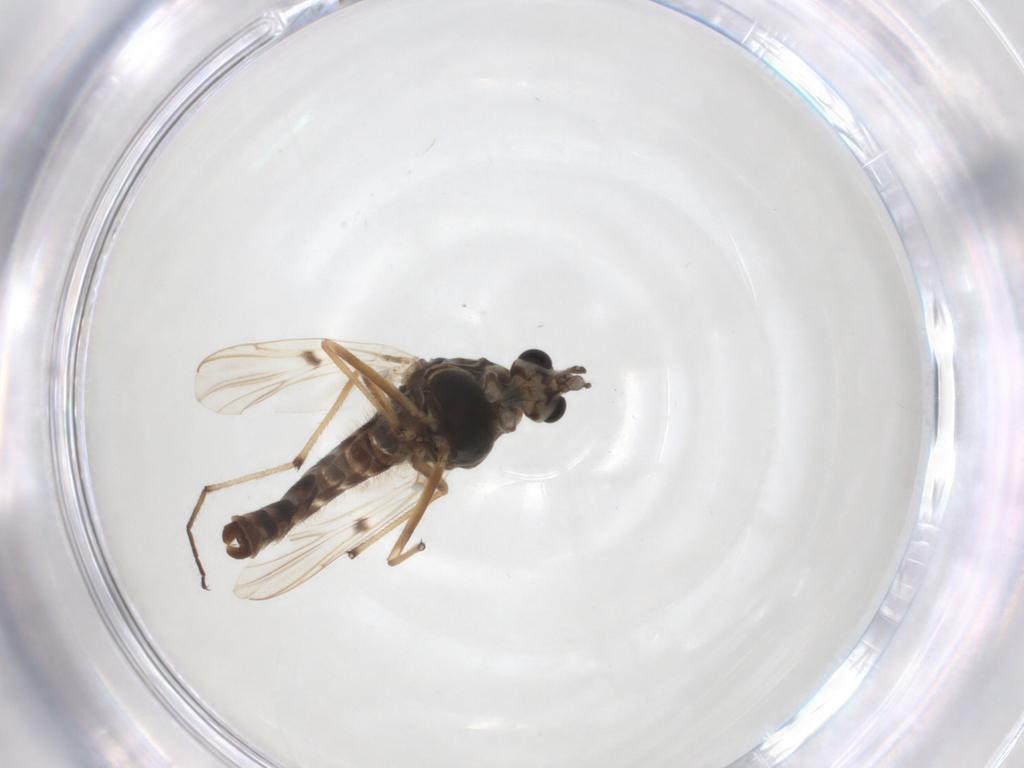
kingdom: Animalia
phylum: Arthropoda
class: Insecta
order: Diptera
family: Chironomidae
